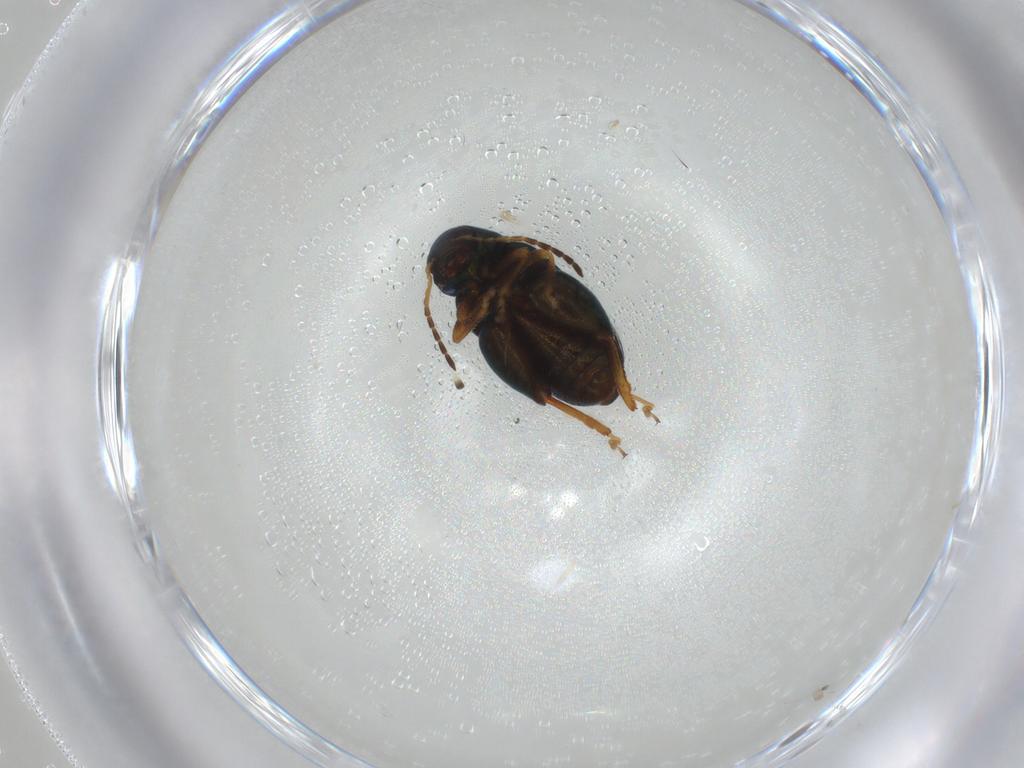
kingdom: Animalia
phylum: Arthropoda
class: Insecta
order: Coleoptera
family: Chrysomelidae
